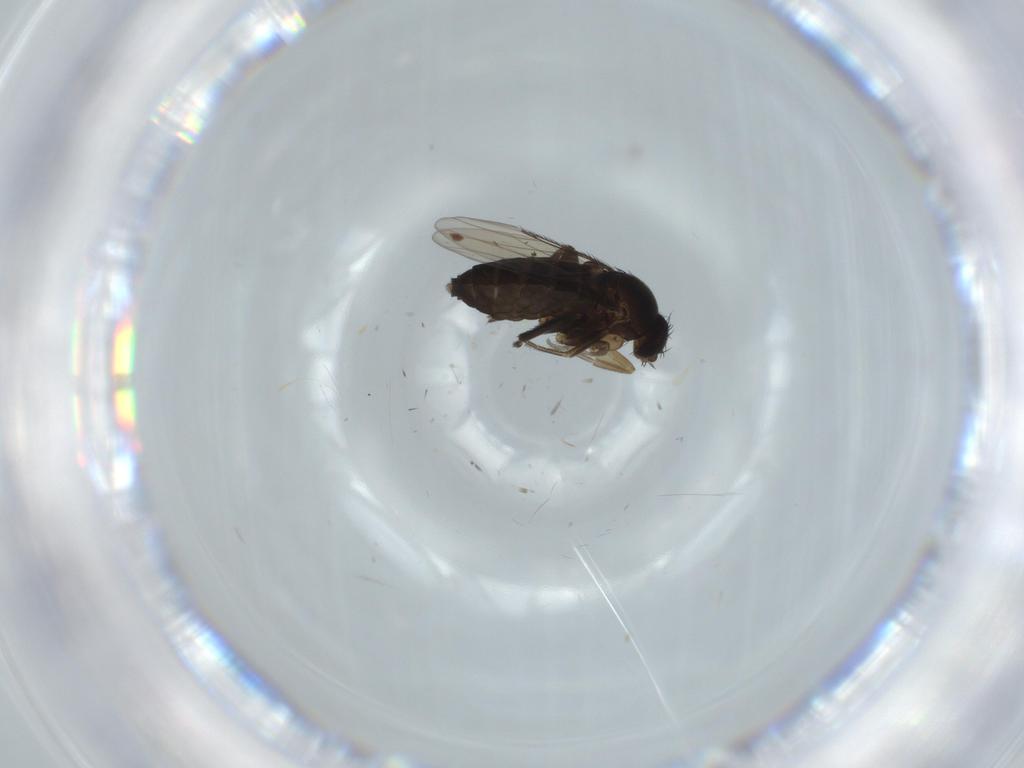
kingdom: Animalia
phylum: Arthropoda
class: Insecta
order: Diptera
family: Phoridae
